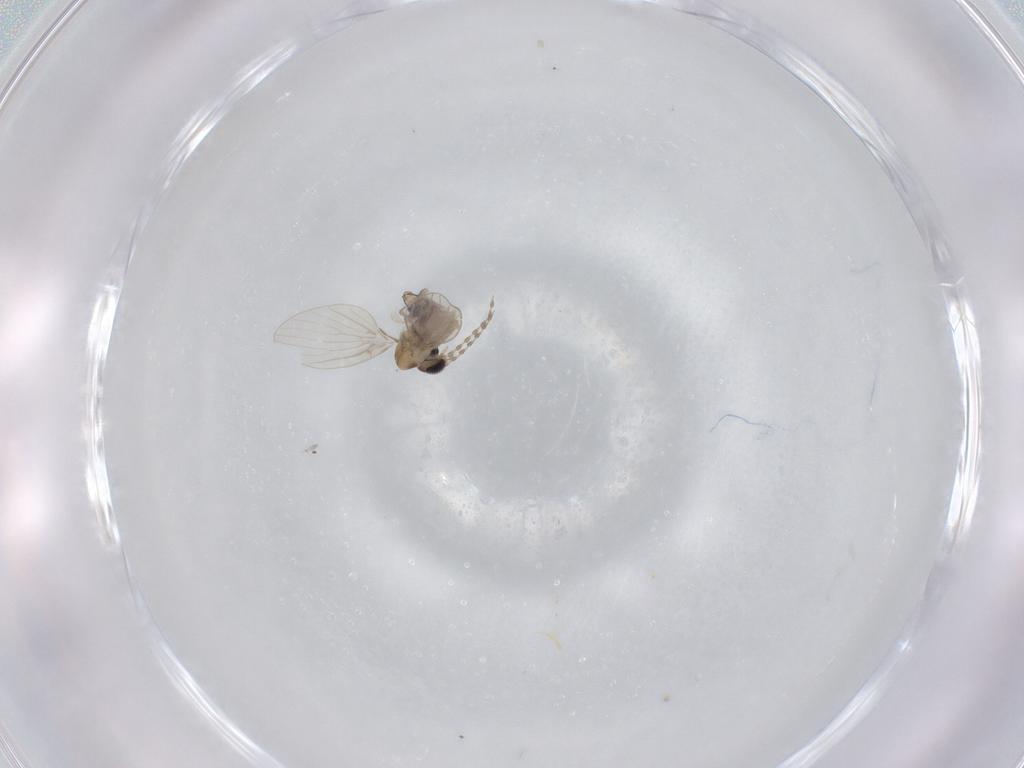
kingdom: Animalia
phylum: Arthropoda
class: Insecta
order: Diptera
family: Psychodidae
